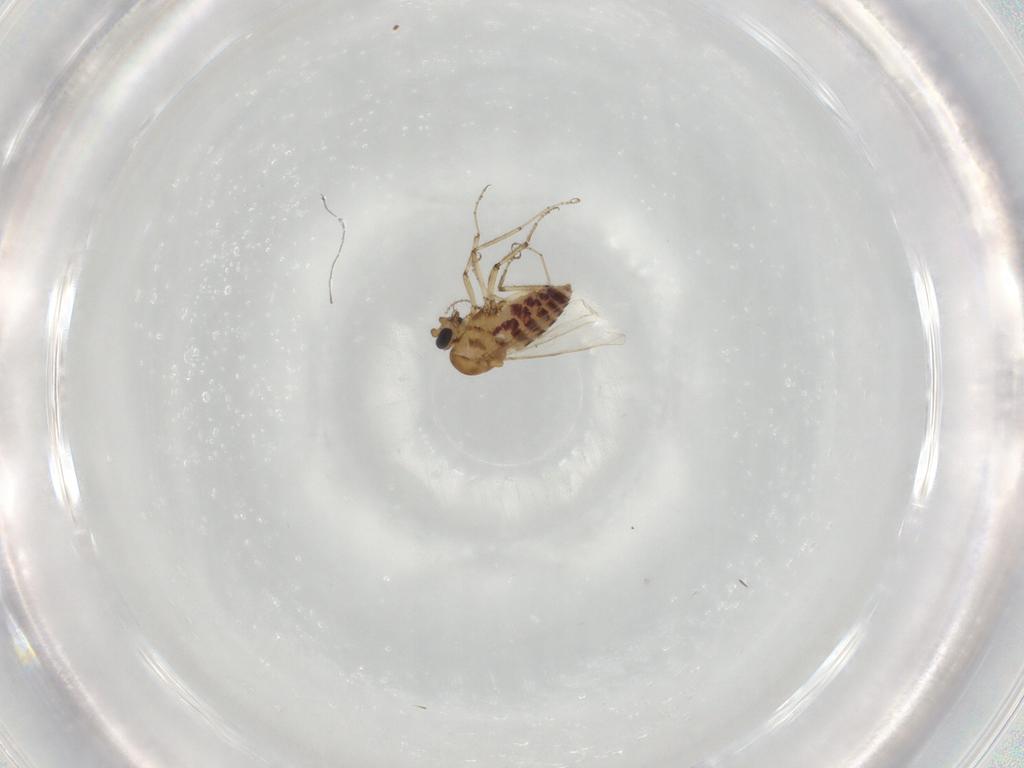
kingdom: Animalia
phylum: Arthropoda
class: Insecta
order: Diptera
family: Ceratopogonidae
